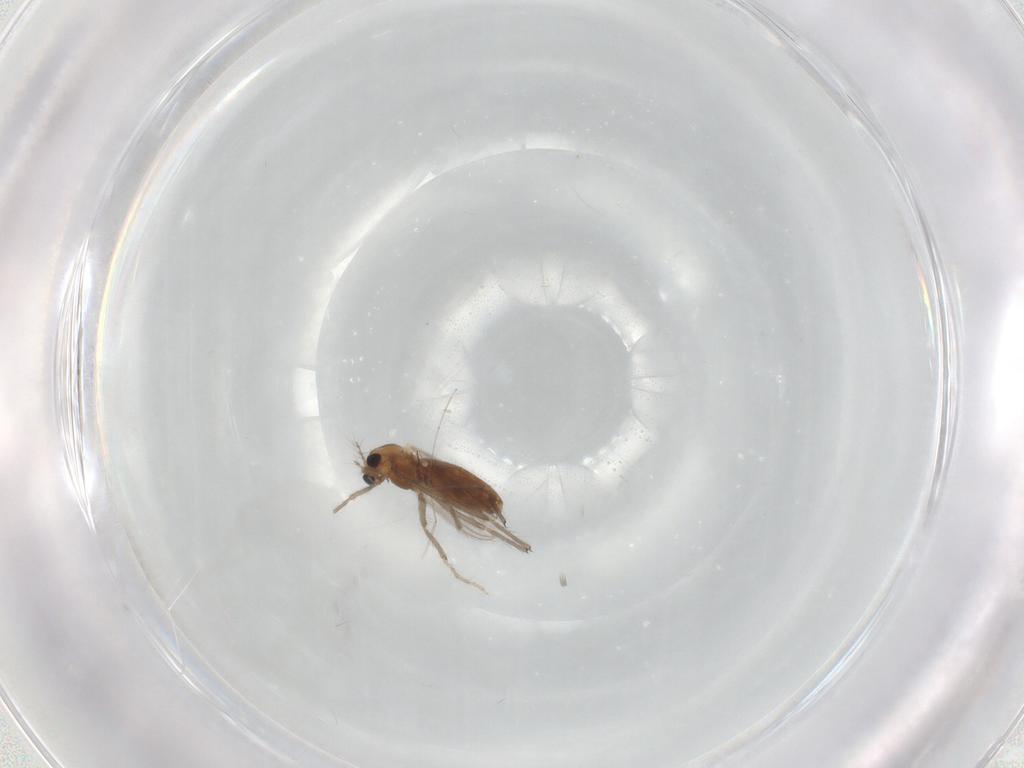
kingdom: Animalia
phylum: Arthropoda
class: Insecta
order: Diptera
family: Chironomidae
